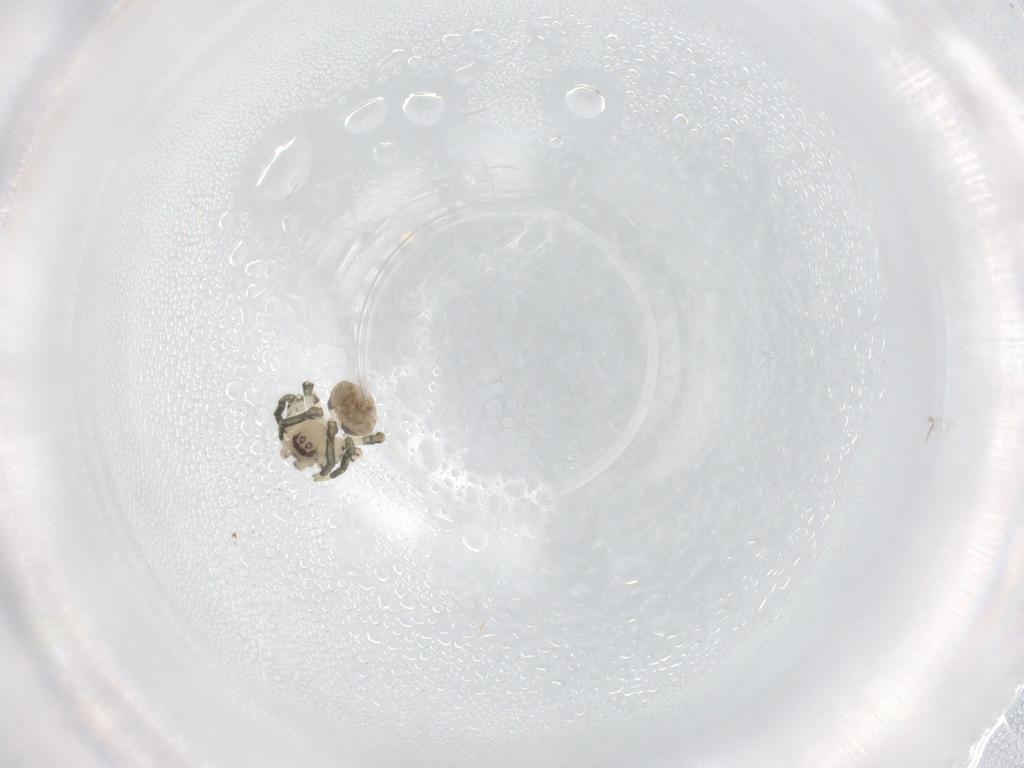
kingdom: Animalia
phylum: Arthropoda
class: Arachnida
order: Araneae
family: Theridiidae
